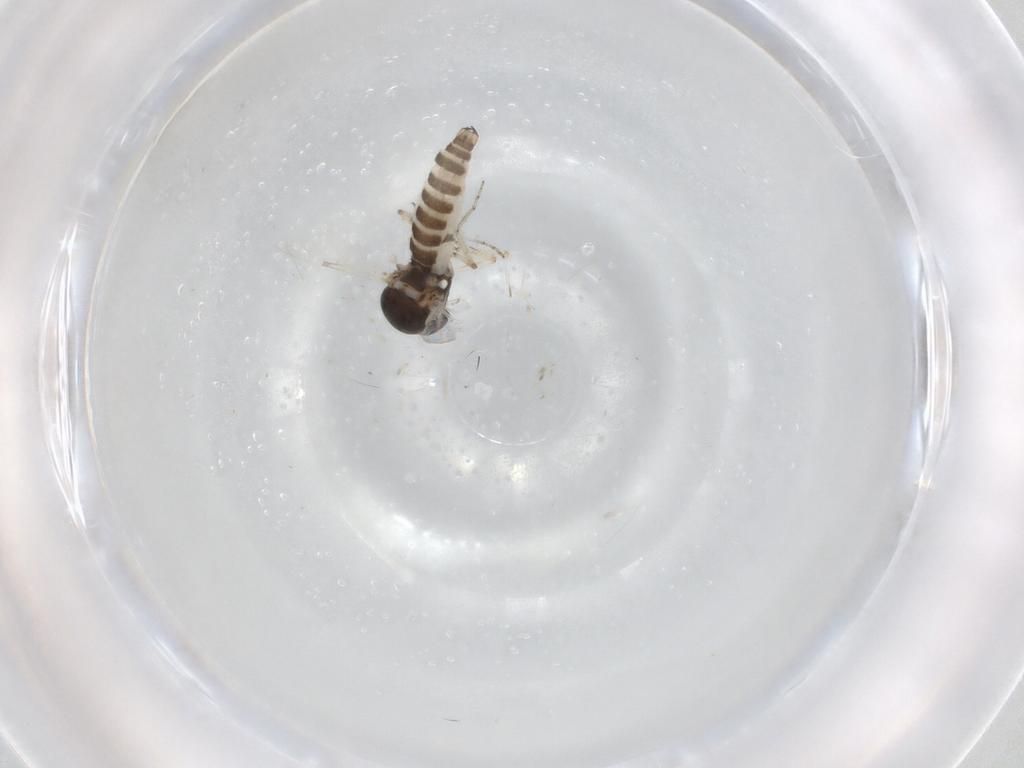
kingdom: Animalia
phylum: Arthropoda
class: Insecta
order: Diptera
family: Ceratopogonidae
